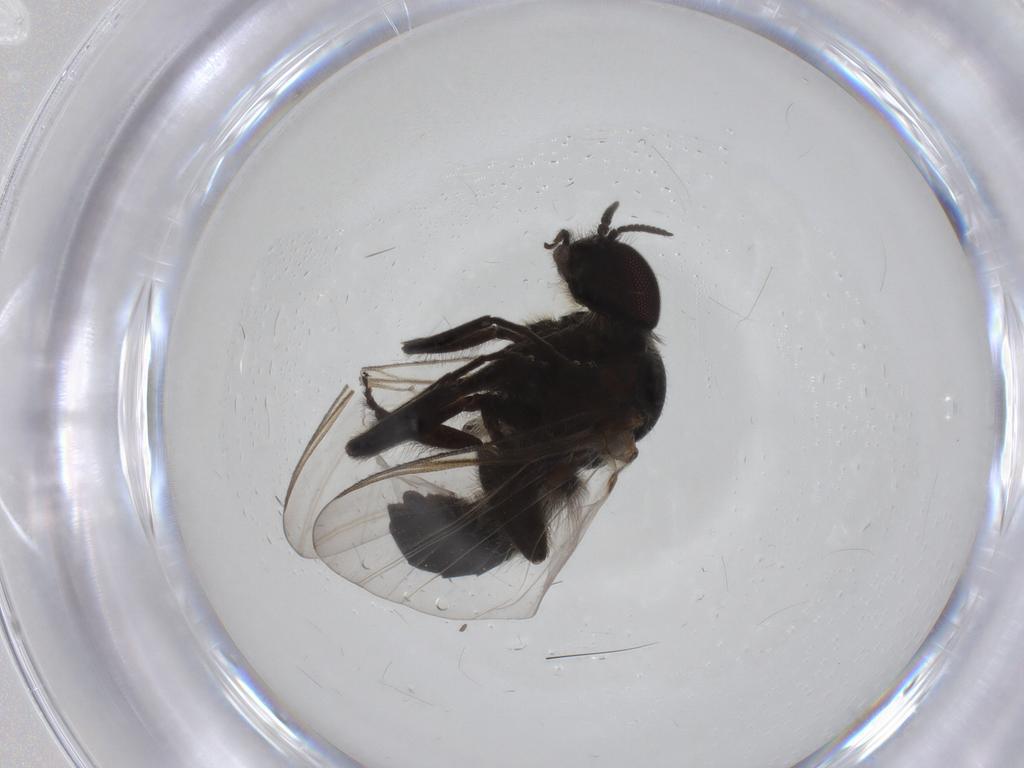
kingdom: Animalia
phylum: Arthropoda
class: Insecta
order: Diptera
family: Simuliidae
